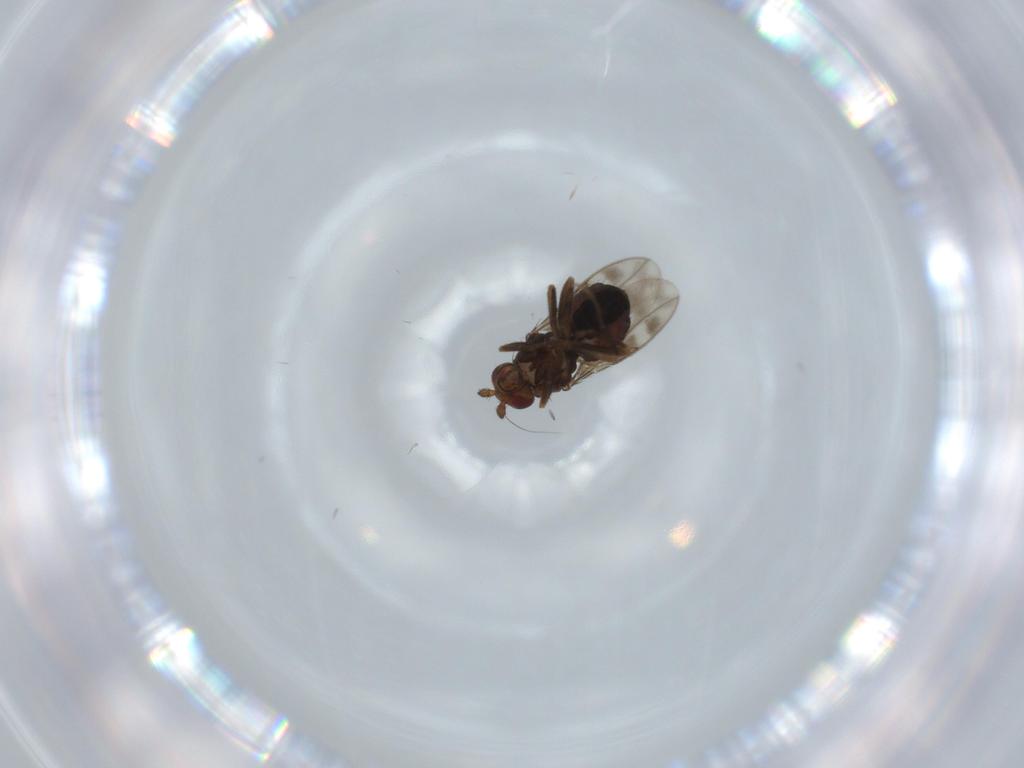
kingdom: Animalia
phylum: Arthropoda
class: Insecta
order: Diptera
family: Sphaeroceridae
